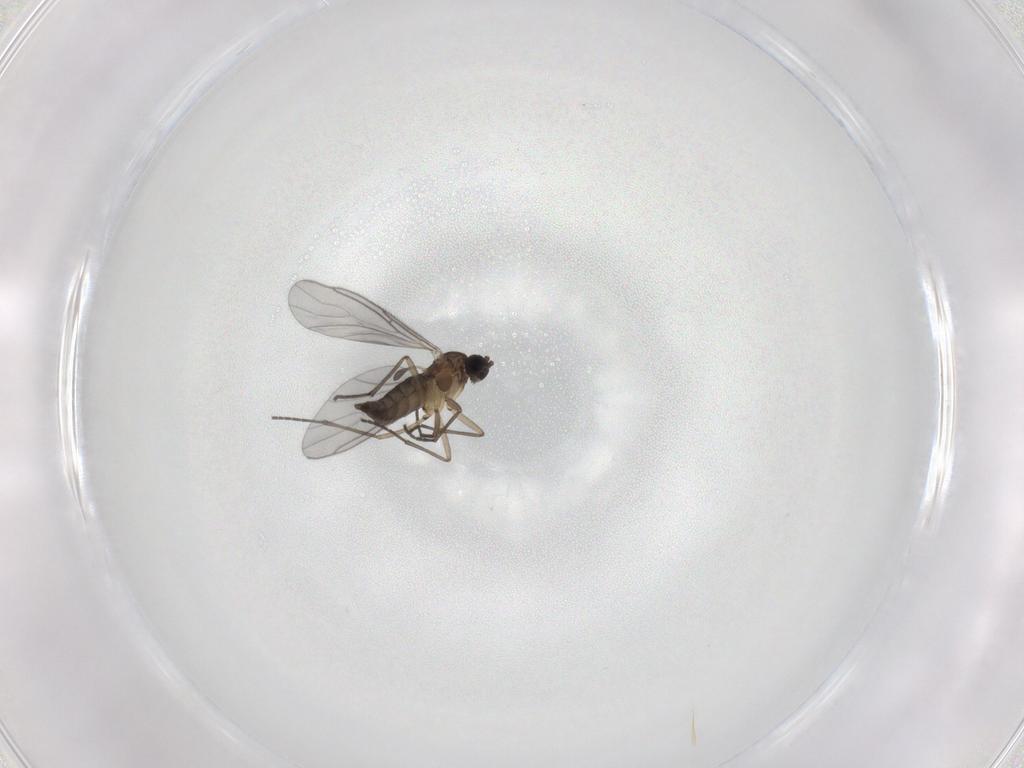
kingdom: Animalia
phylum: Arthropoda
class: Insecta
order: Diptera
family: Sciaridae
